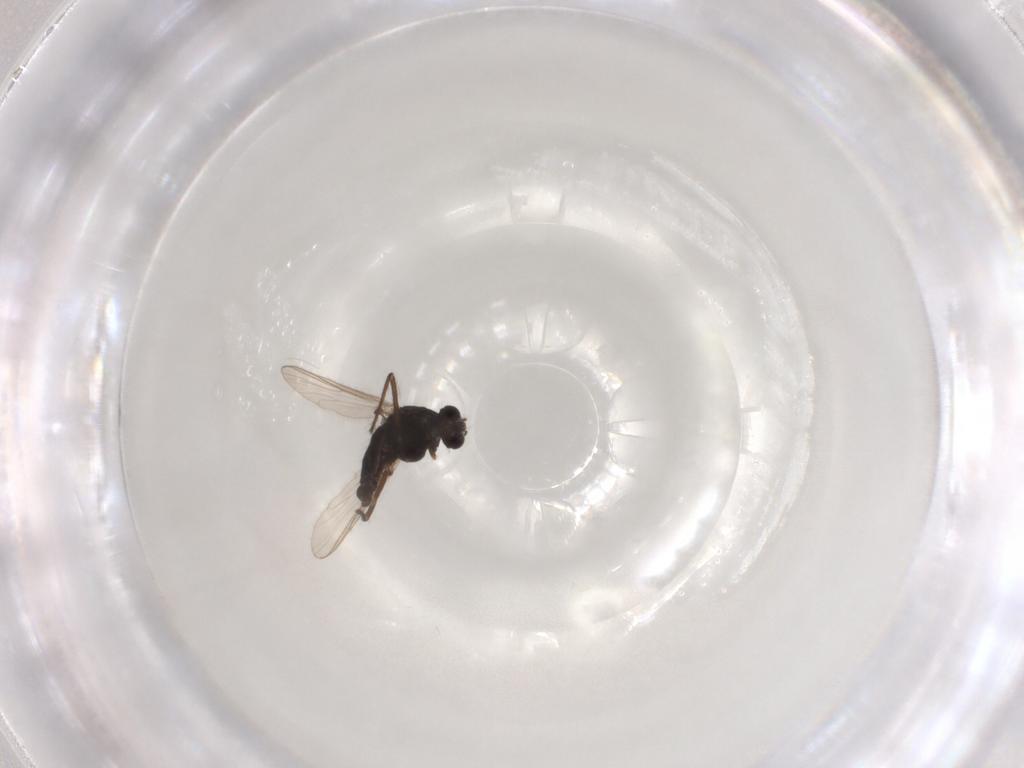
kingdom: Animalia
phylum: Arthropoda
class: Insecta
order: Diptera
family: Chironomidae
